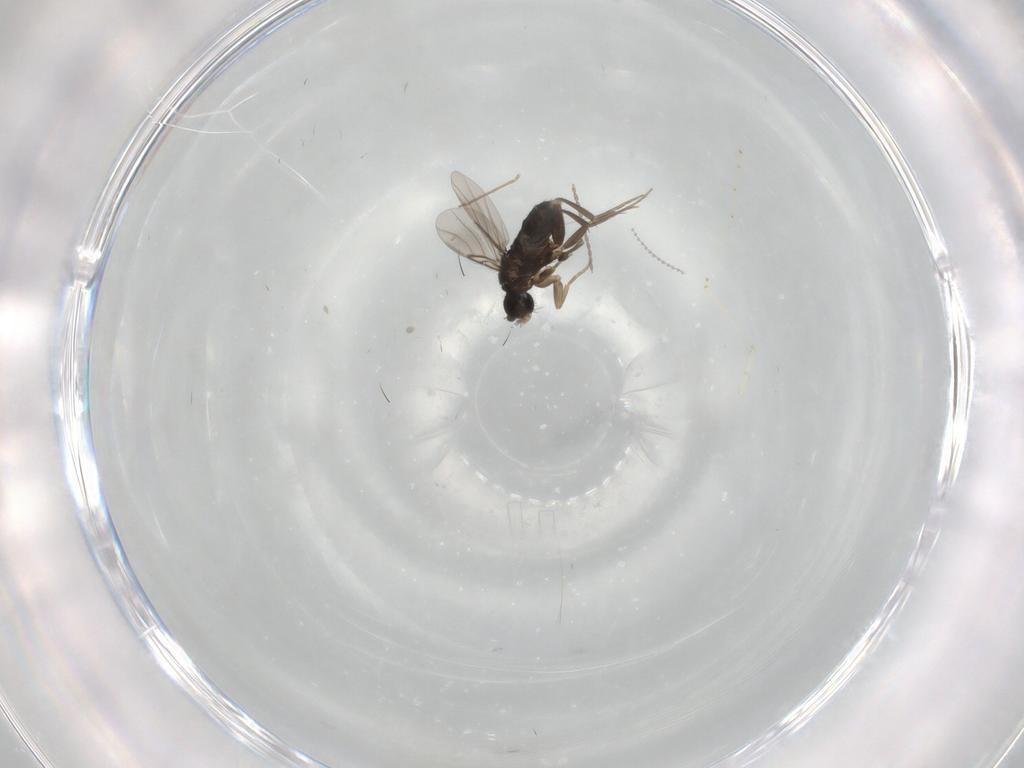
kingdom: Animalia
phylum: Arthropoda
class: Insecta
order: Diptera
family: Phoridae
